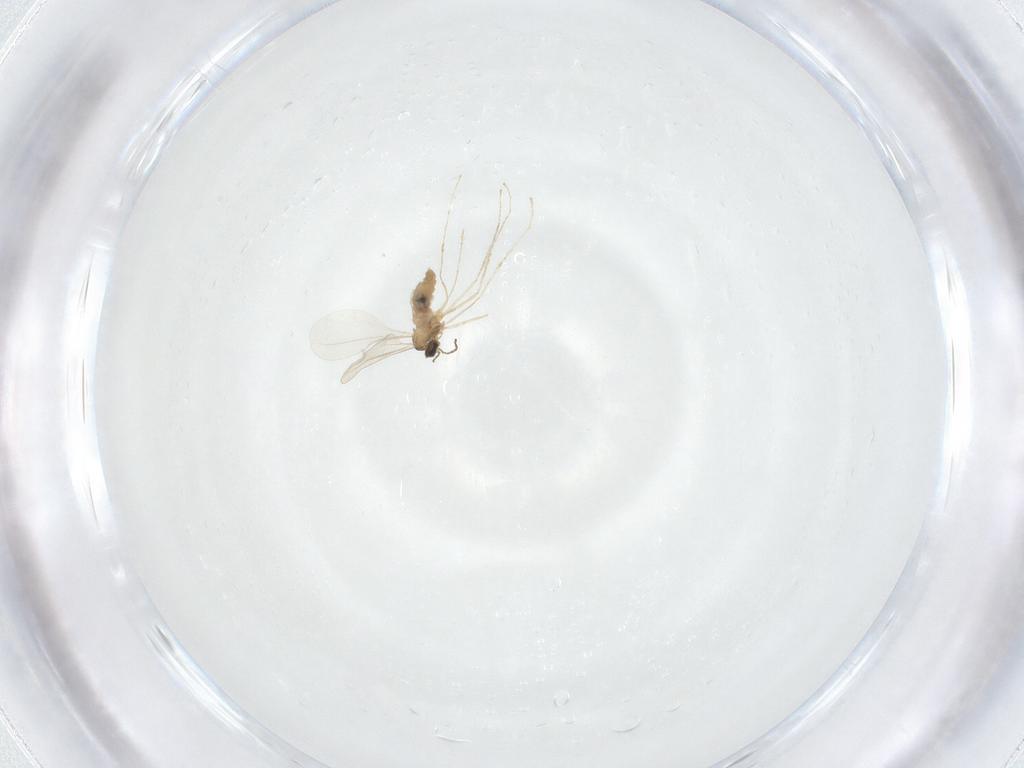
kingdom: Animalia
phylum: Arthropoda
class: Insecta
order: Diptera
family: Cecidomyiidae
